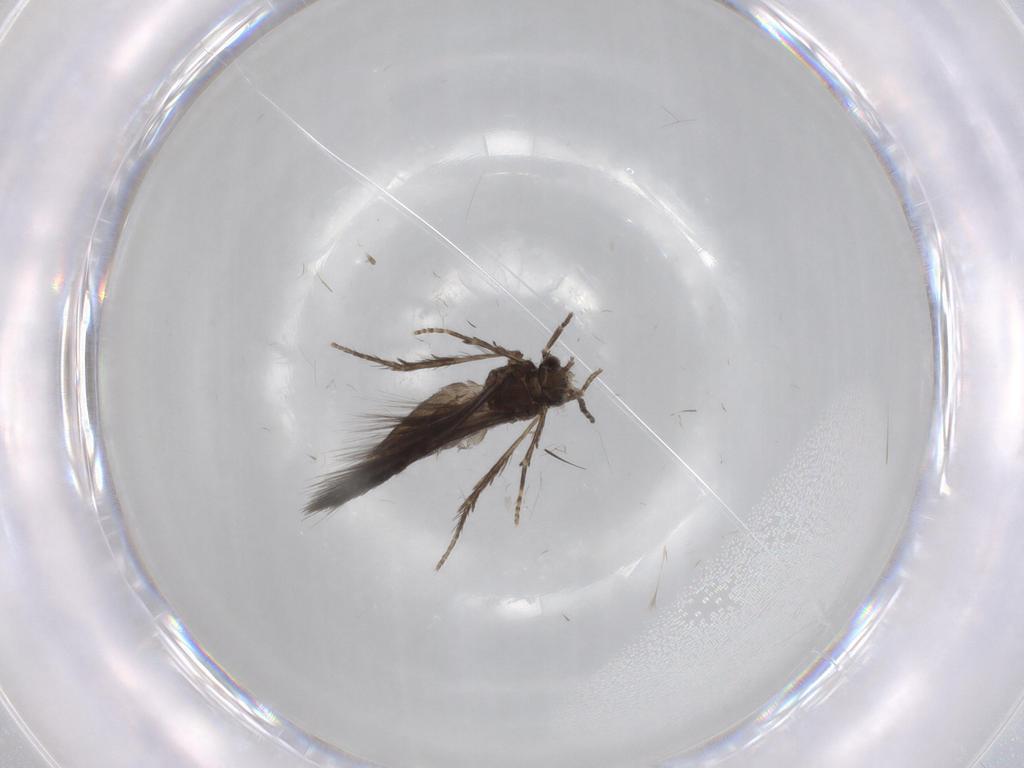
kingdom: Animalia
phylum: Arthropoda
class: Insecta
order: Trichoptera
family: Hydroptilidae
